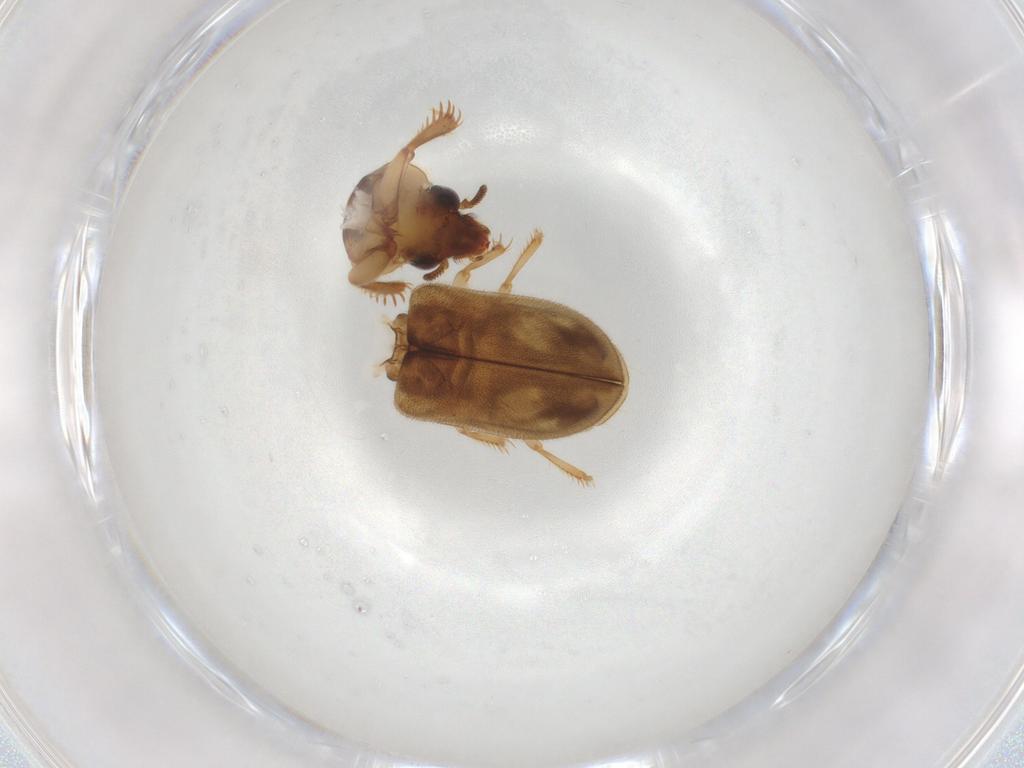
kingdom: Animalia
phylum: Arthropoda
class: Insecta
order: Coleoptera
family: Heteroceridae
